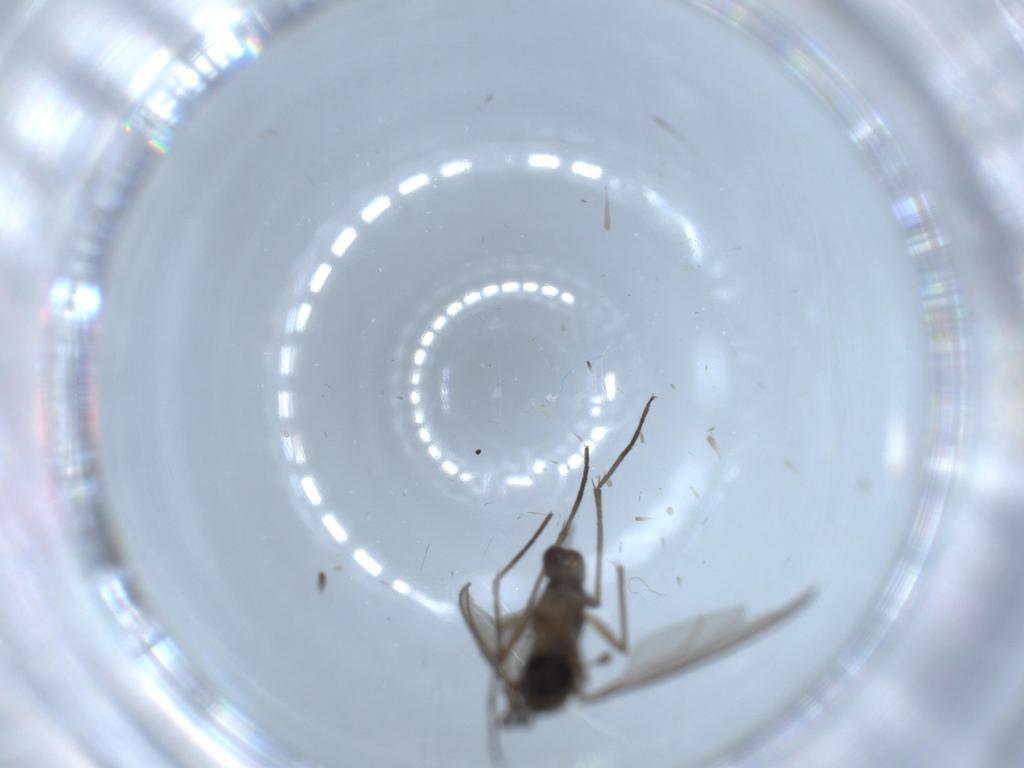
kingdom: Animalia
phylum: Arthropoda
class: Insecta
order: Diptera
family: Sciaridae
